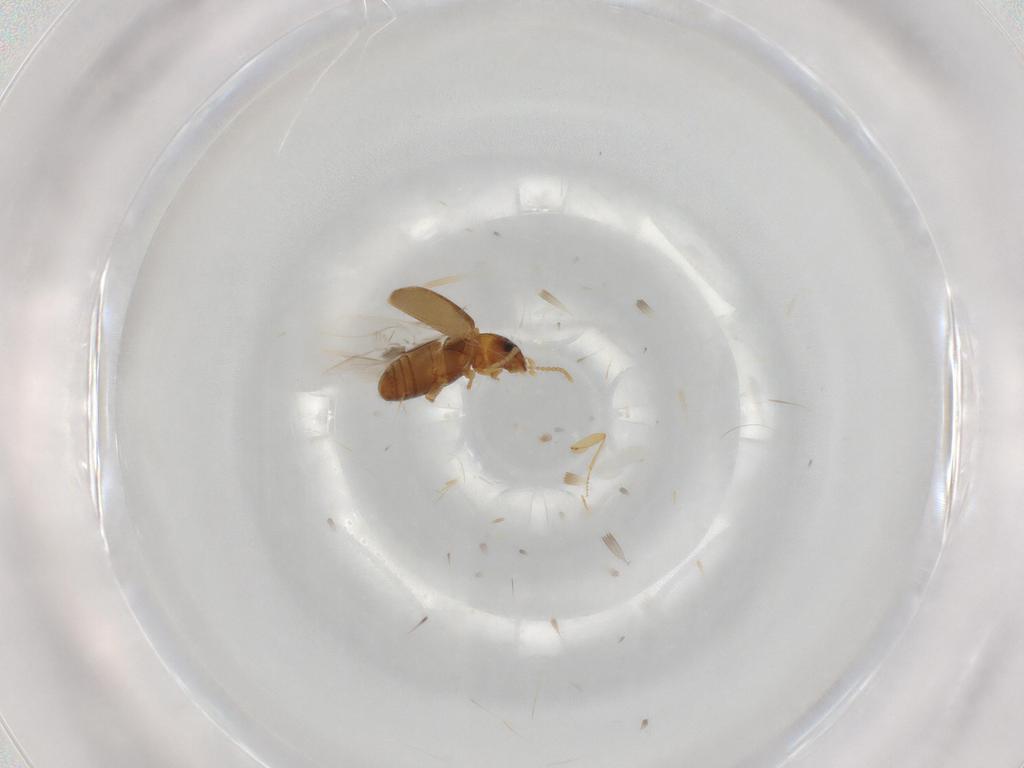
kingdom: Animalia
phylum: Arthropoda
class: Insecta
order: Coleoptera
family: Carabidae
